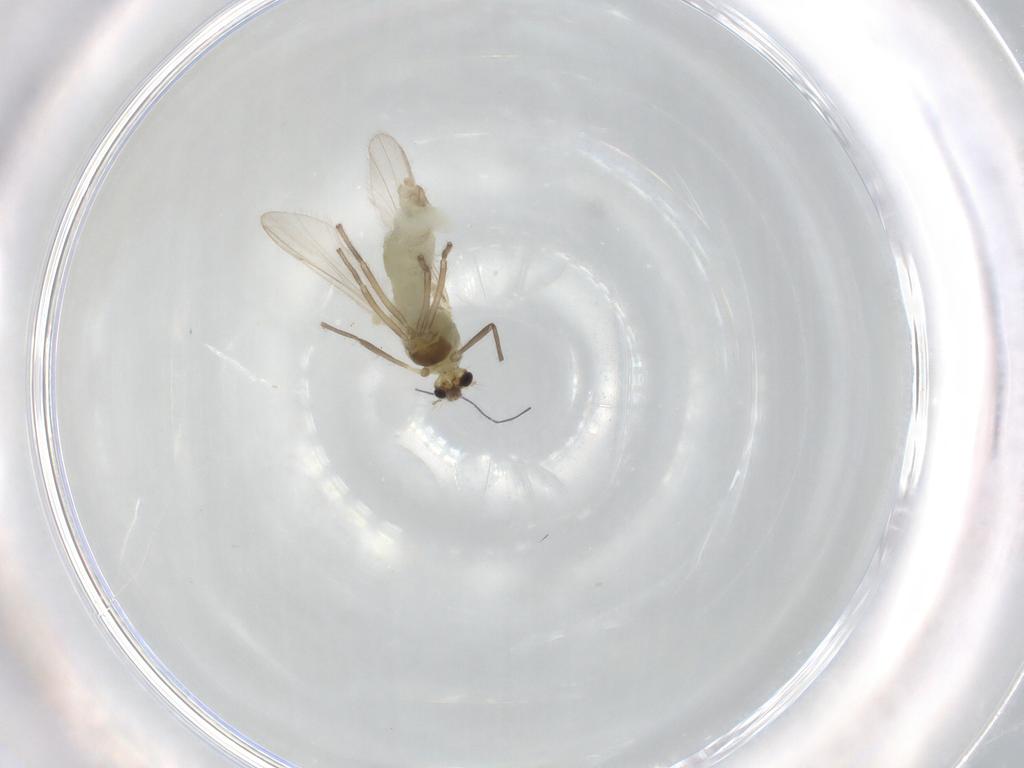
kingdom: Animalia
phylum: Arthropoda
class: Insecta
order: Diptera
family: Chironomidae
